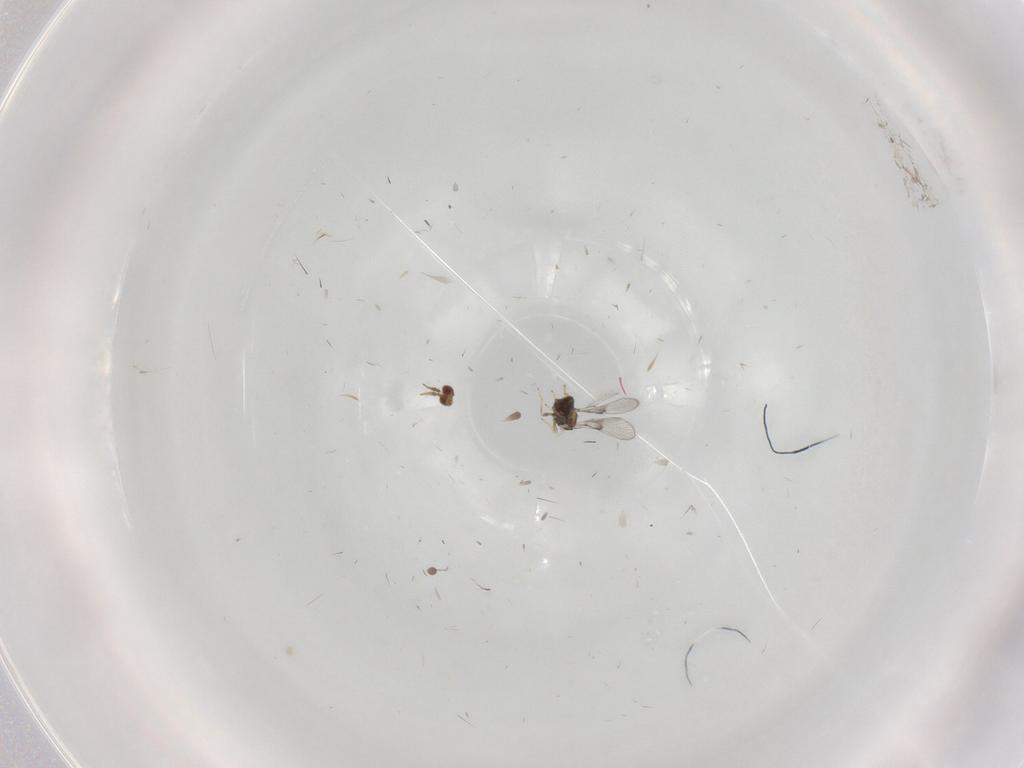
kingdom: Animalia
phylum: Arthropoda
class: Insecta
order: Hymenoptera
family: Trichogrammatidae
